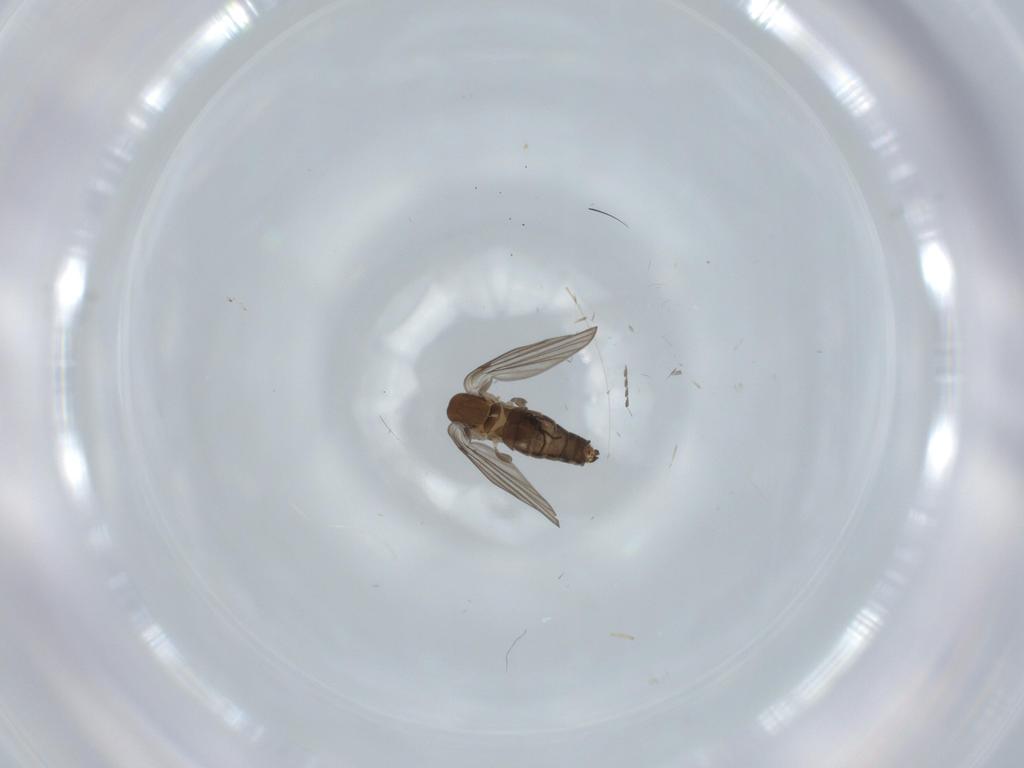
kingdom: Animalia
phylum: Arthropoda
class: Insecta
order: Diptera
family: Psychodidae
